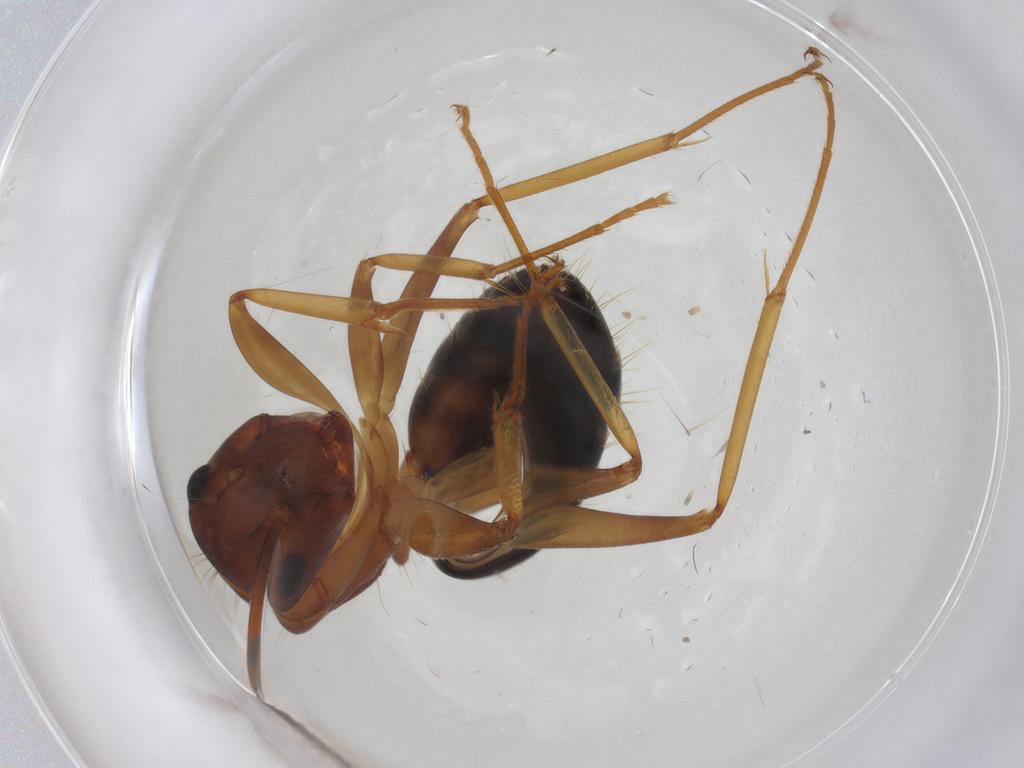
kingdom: Animalia
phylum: Arthropoda
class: Insecta
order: Hymenoptera
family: Formicidae
